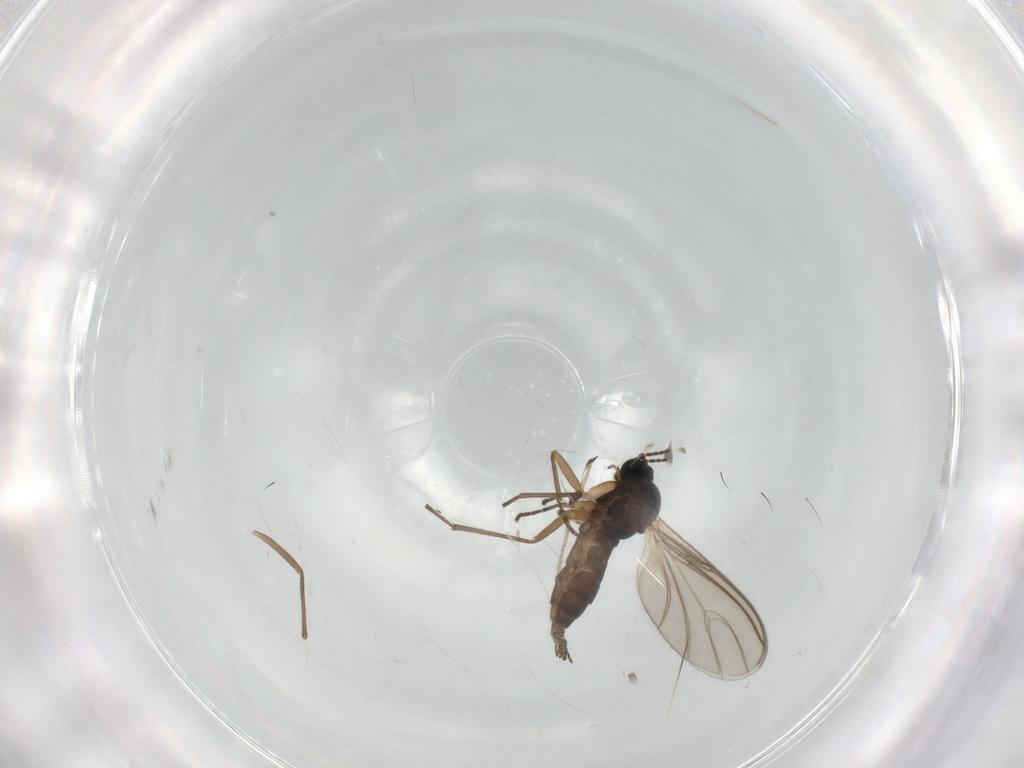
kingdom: Animalia
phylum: Arthropoda
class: Insecta
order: Diptera
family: Sciaridae
